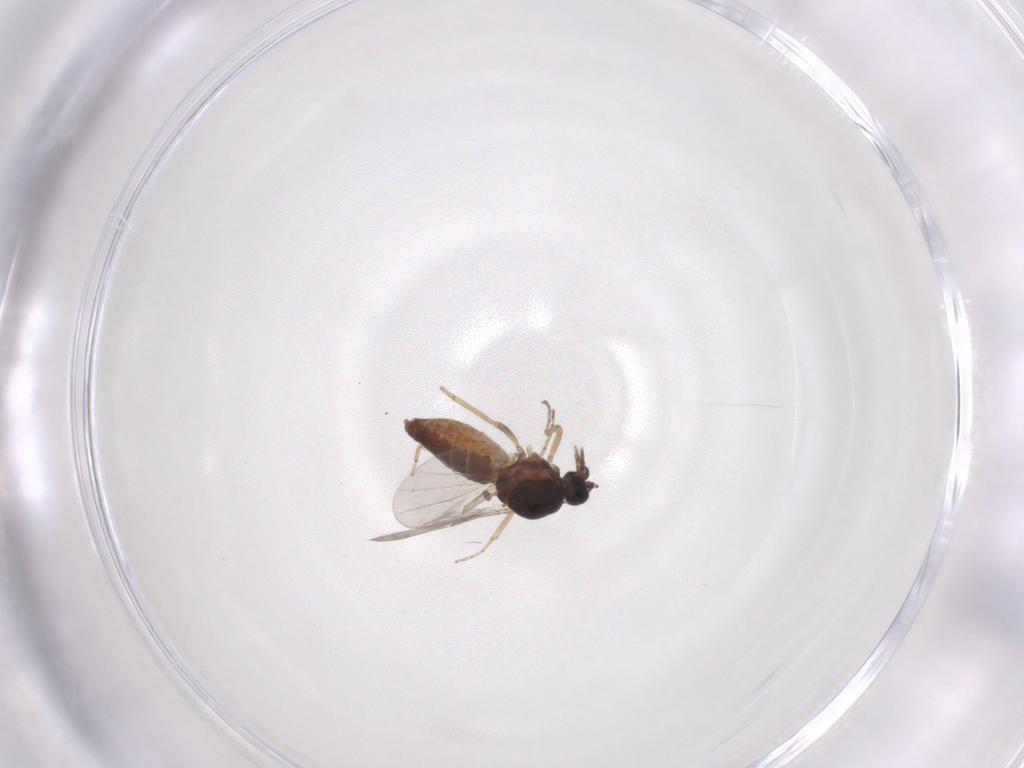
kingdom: Animalia
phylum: Arthropoda
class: Insecta
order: Diptera
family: Ceratopogonidae
